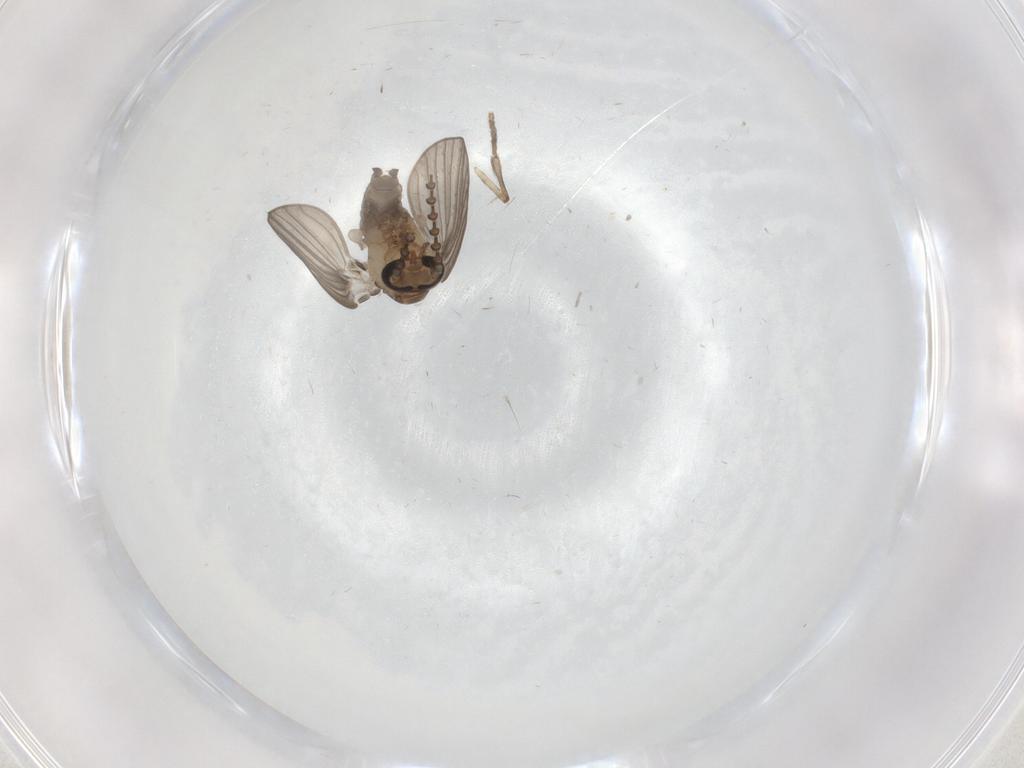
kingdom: Animalia
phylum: Arthropoda
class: Insecta
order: Diptera
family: Psychodidae
